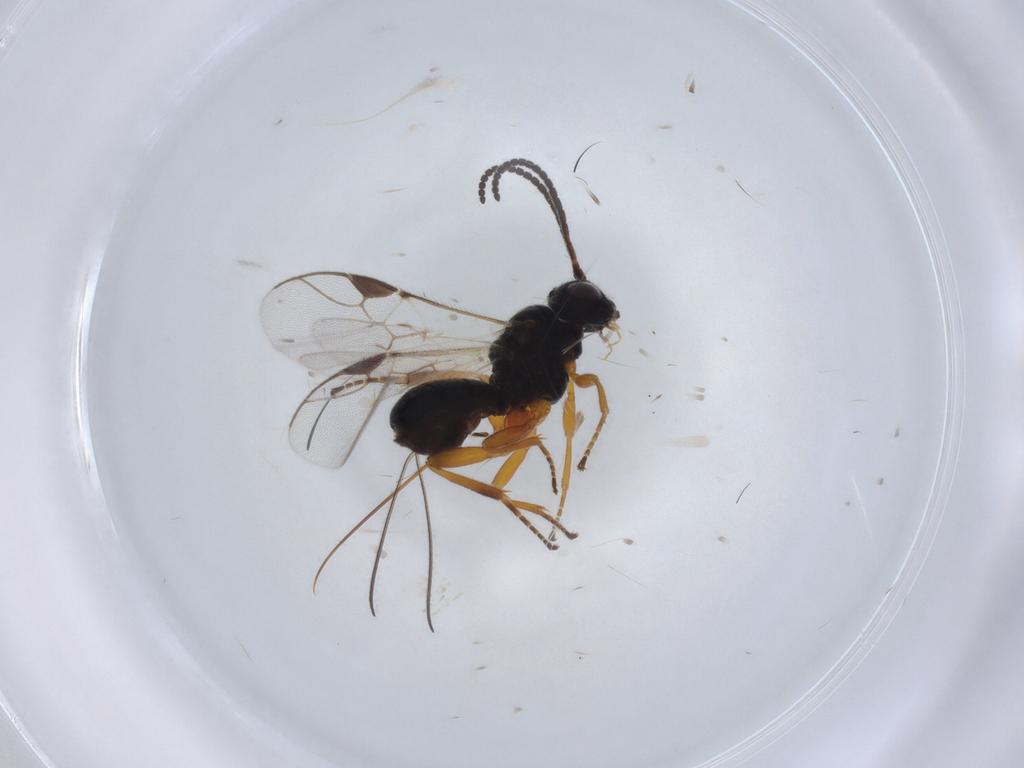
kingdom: Animalia
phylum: Arthropoda
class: Insecta
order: Hymenoptera
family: Braconidae
